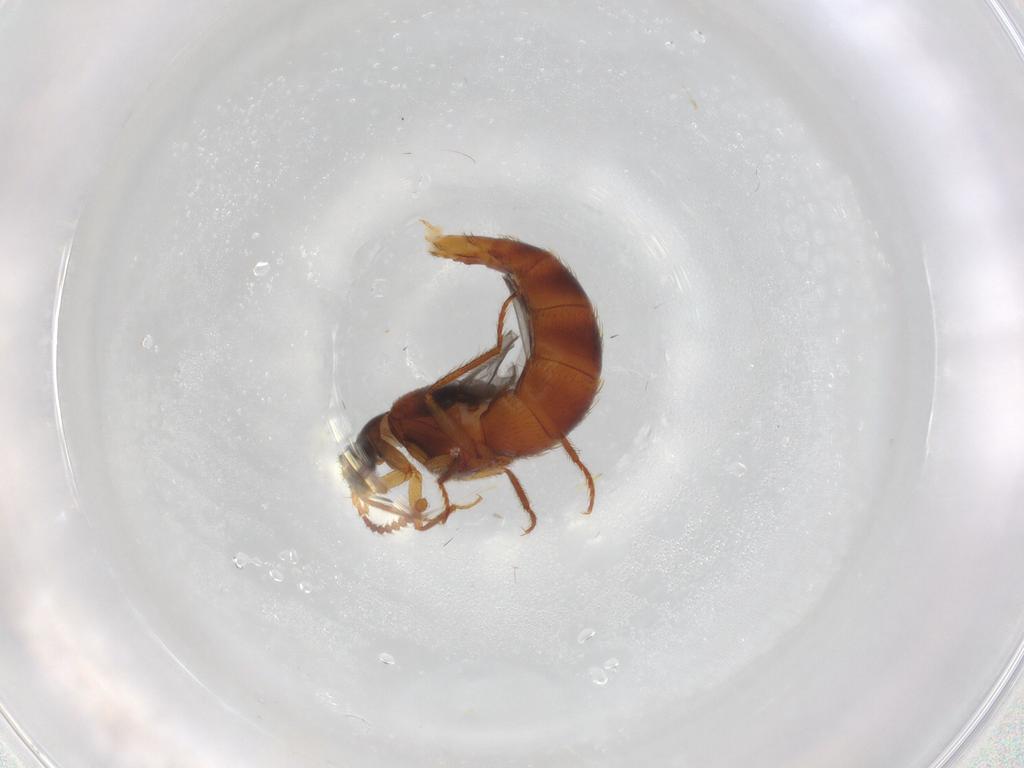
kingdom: Animalia
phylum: Arthropoda
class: Insecta
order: Coleoptera
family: Staphylinidae
